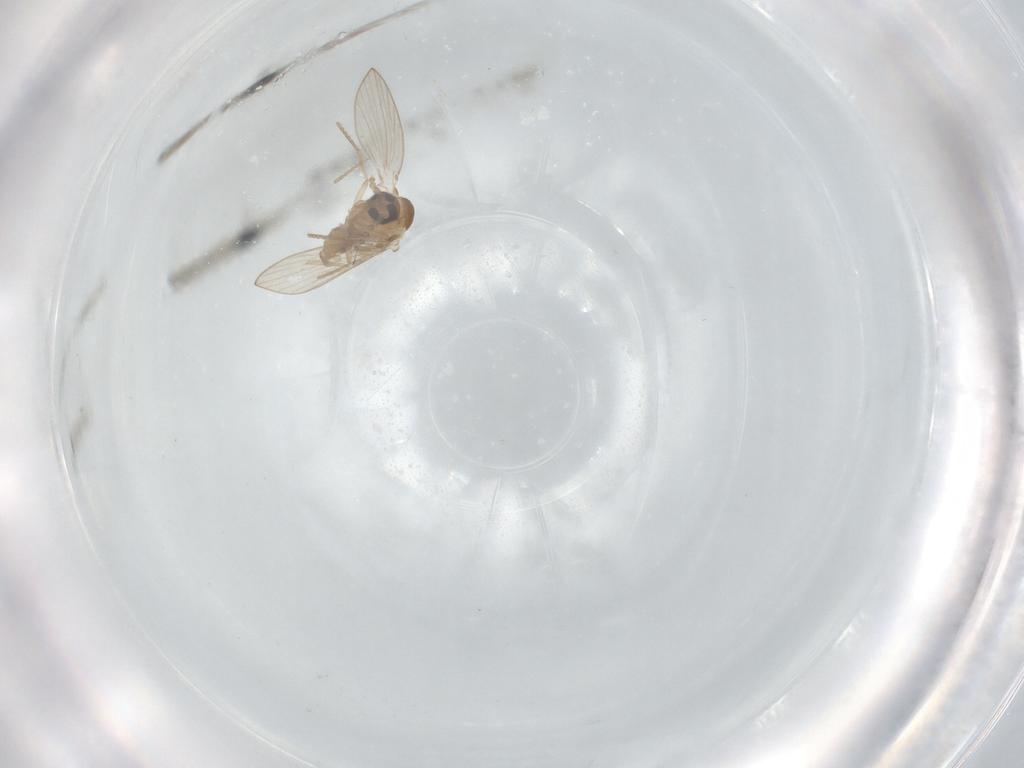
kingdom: Animalia
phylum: Arthropoda
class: Insecta
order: Diptera
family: Psychodidae
